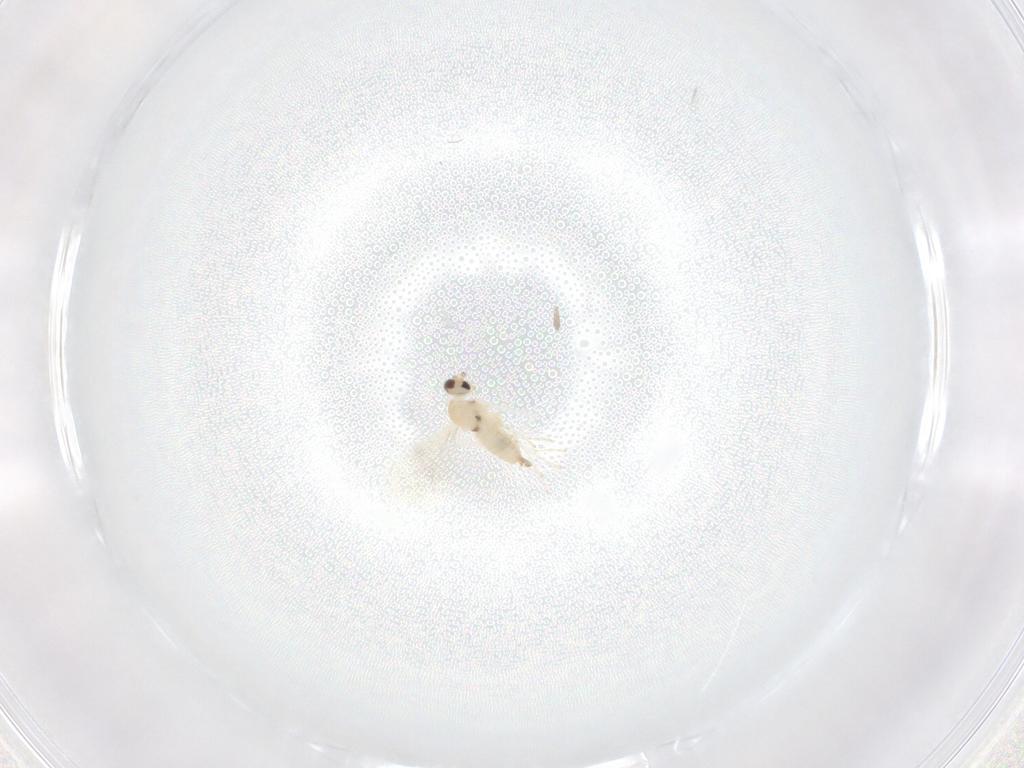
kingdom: Animalia
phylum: Arthropoda
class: Insecta
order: Diptera
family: Cecidomyiidae
